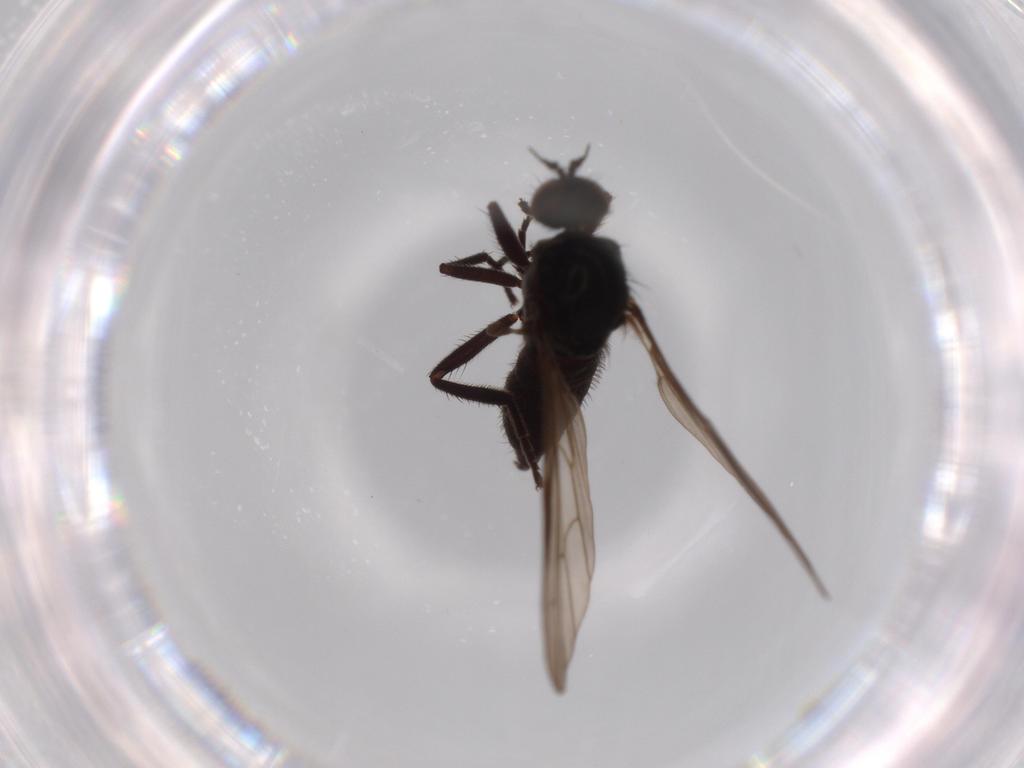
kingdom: Animalia
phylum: Arthropoda
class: Insecta
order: Diptera
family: Empididae
